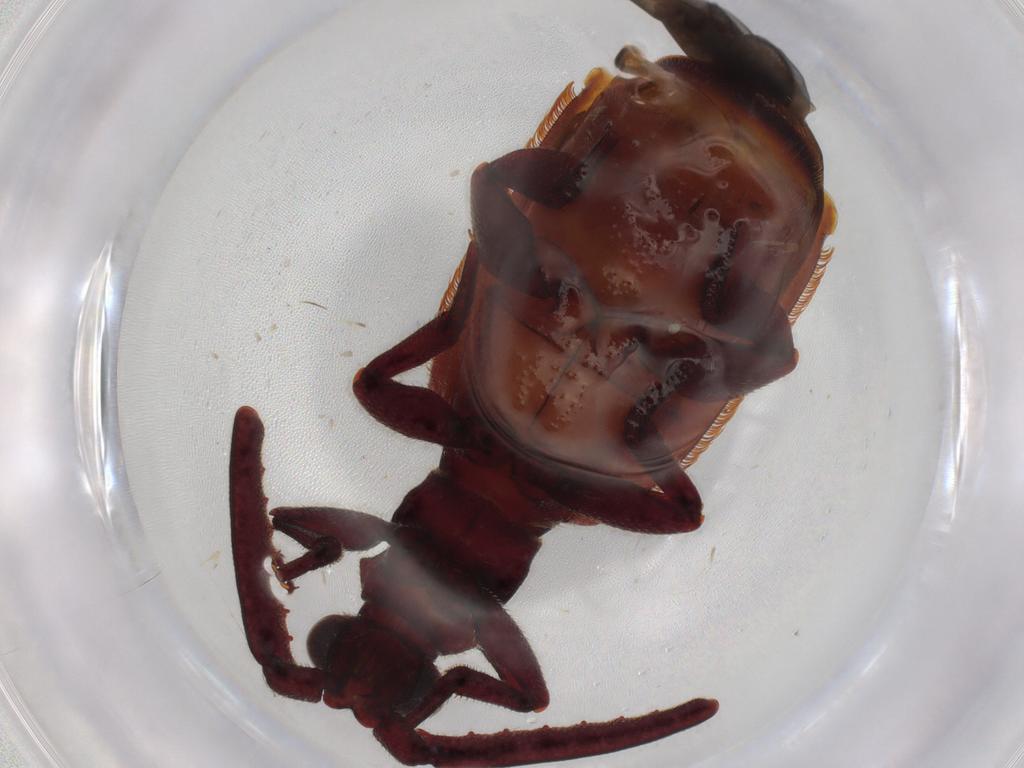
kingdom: Animalia
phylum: Arthropoda
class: Insecta
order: Coleoptera
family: Carabidae
